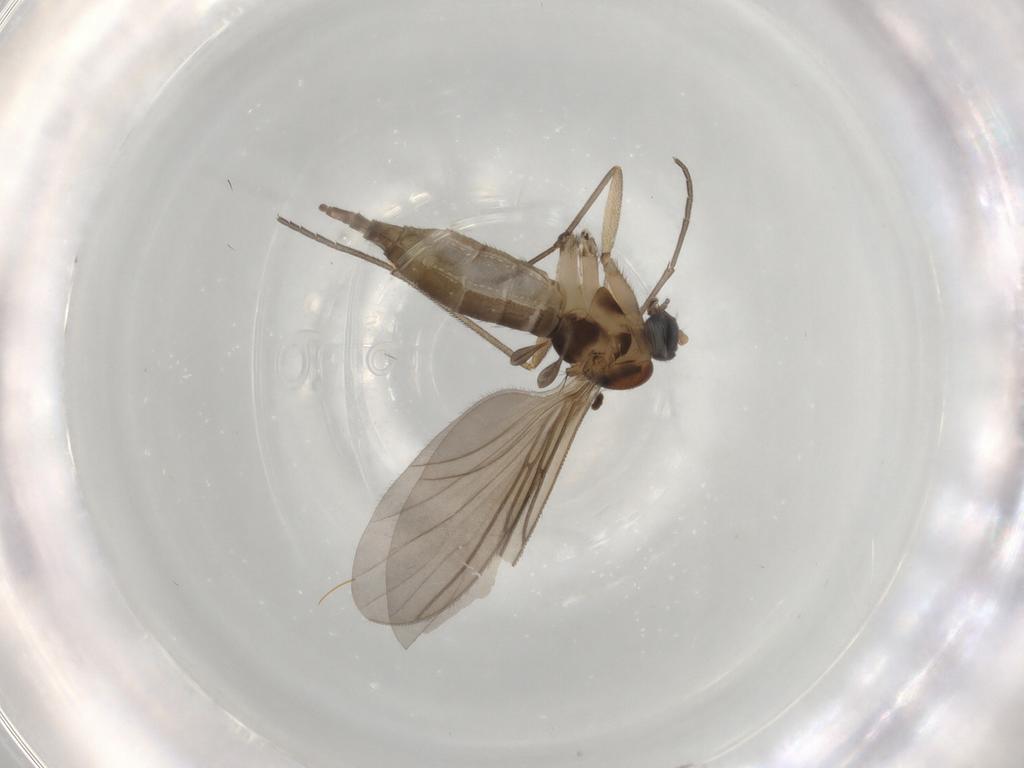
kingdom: Animalia
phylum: Arthropoda
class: Insecta
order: Diptera
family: Sciaridae
